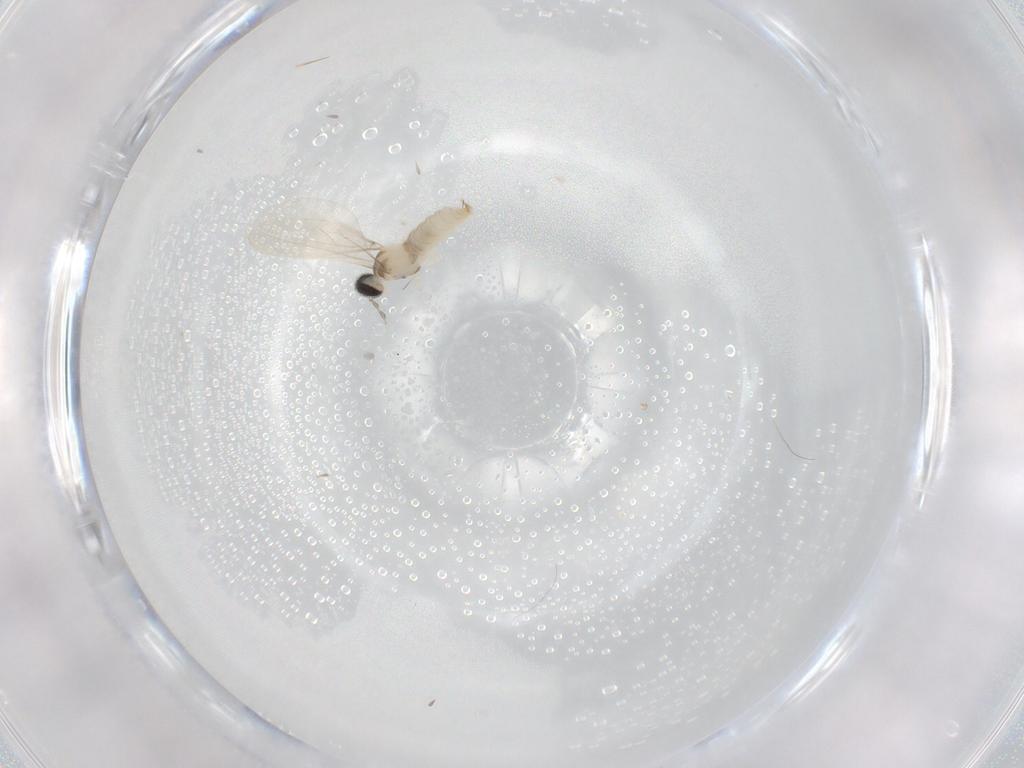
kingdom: Animalia
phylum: Arthropoda
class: Insecta
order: Diptera
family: Cecidomyiidae
